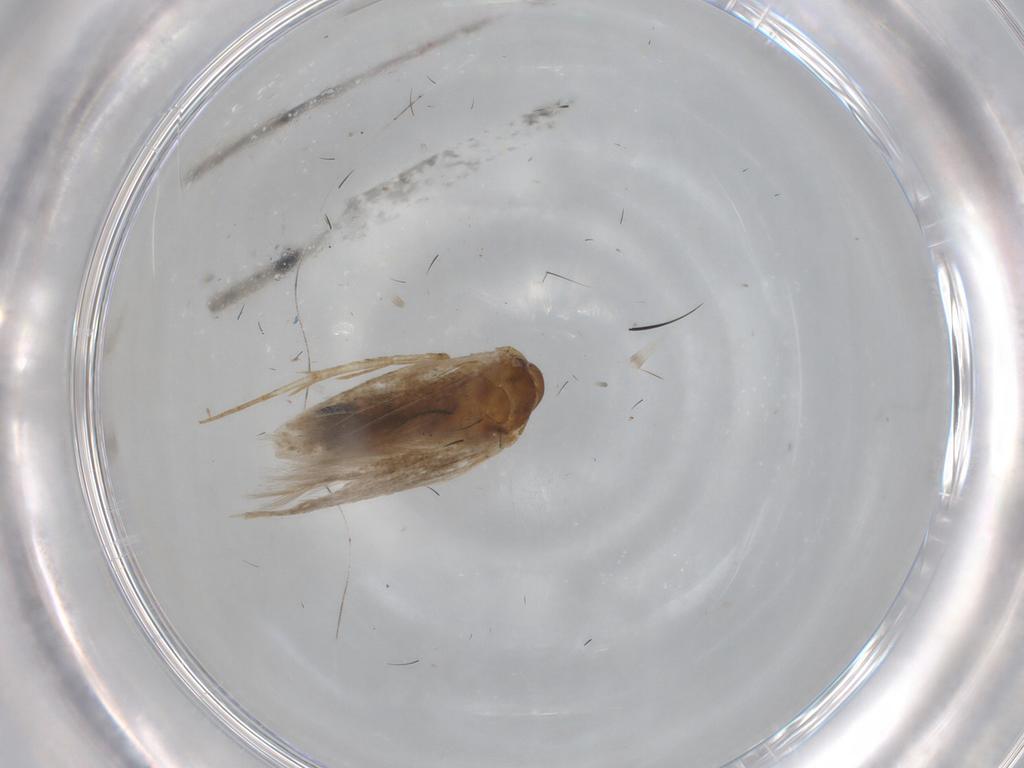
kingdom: Animalia
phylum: Arthropoda
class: Insecta
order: Lepidoptera
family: Cosmopterigidae
